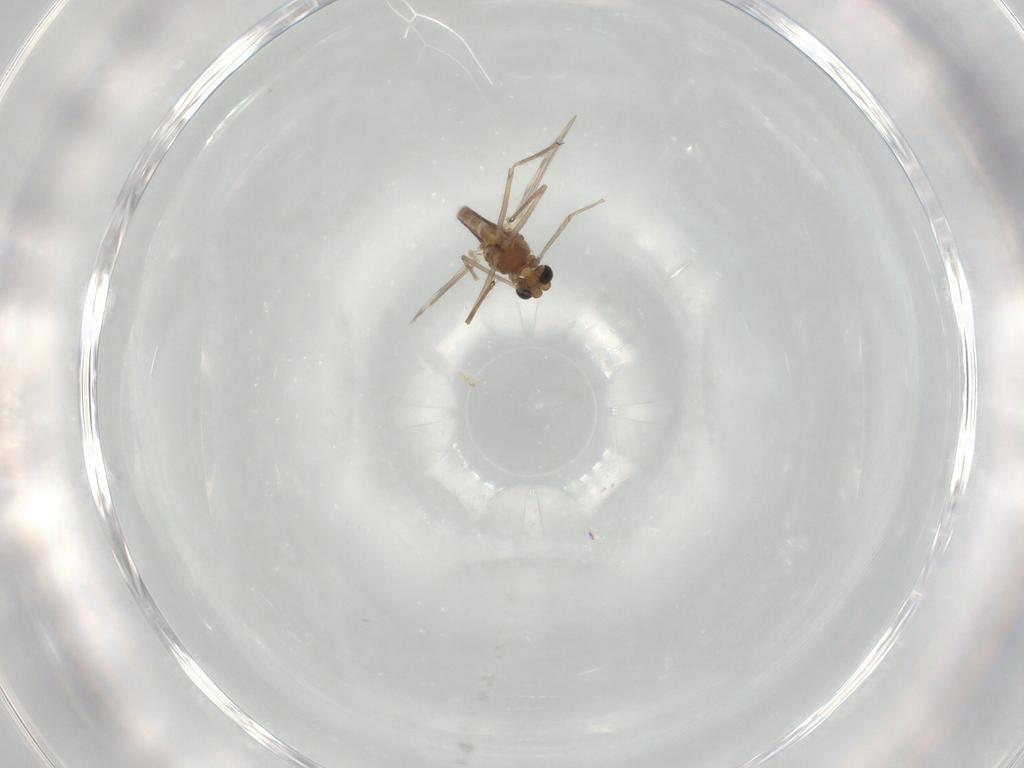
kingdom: Animalia
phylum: Arthropoda
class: Insecta
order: Diptera
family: Chironomidae
